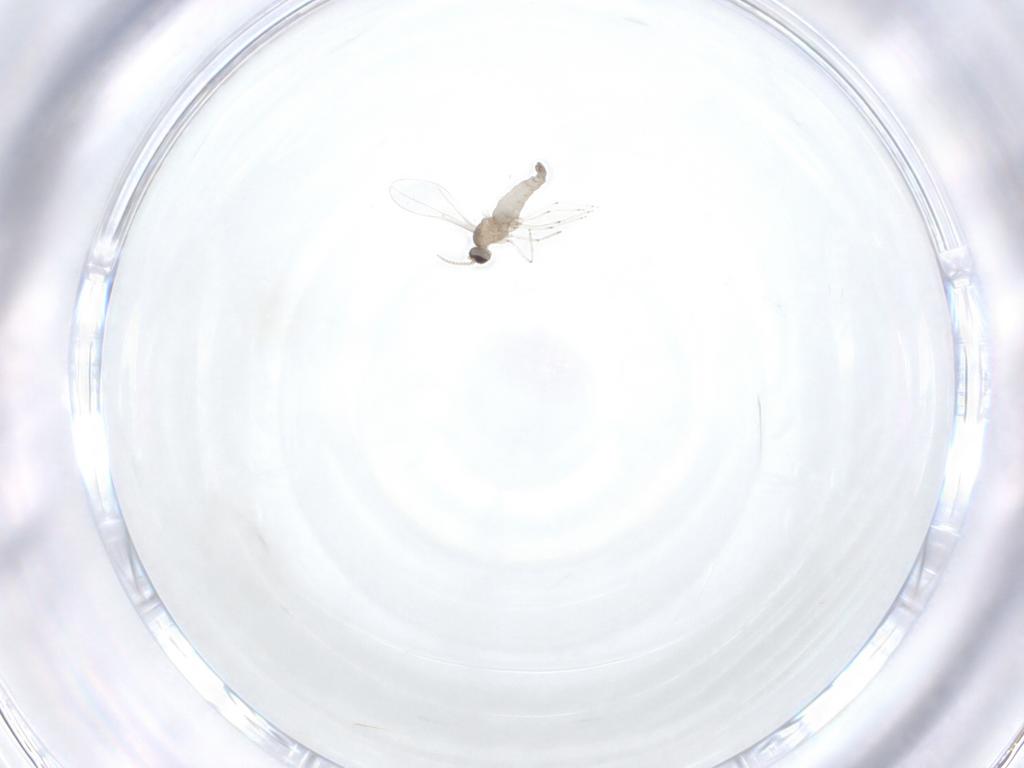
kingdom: Animalia
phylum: Arthropoda
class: Insecta
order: Diptera
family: Cecidomyiidae
